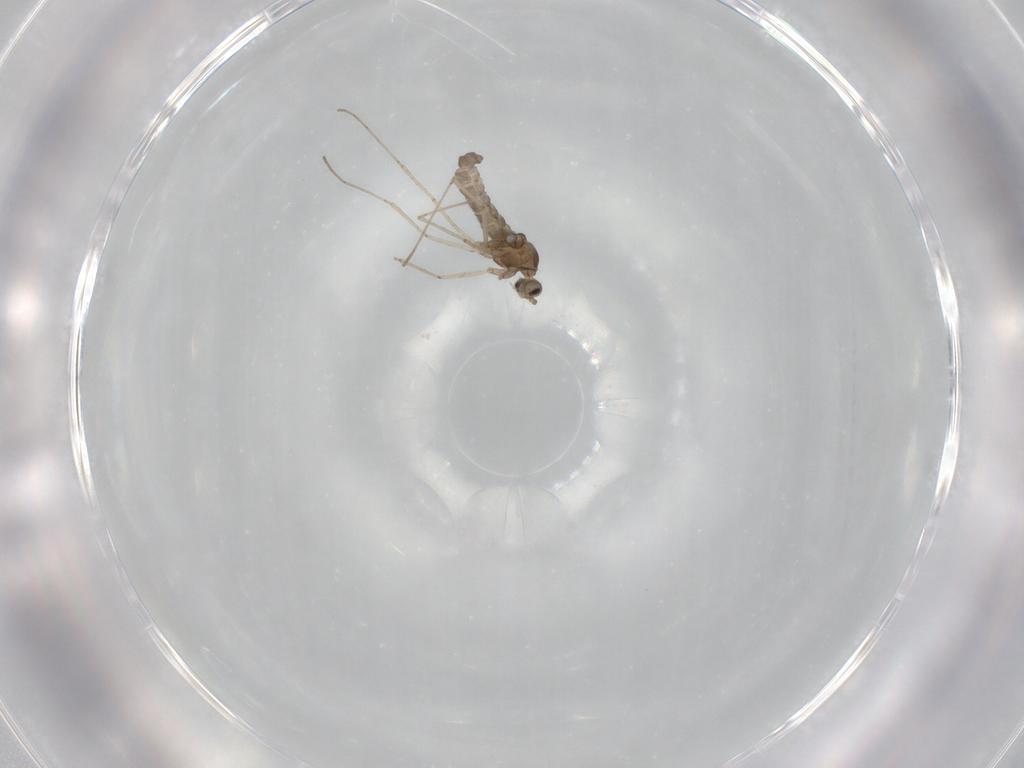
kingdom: Animalia
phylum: Arthropoda
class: Insecta
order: Diptera
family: Cecidomyiidae
